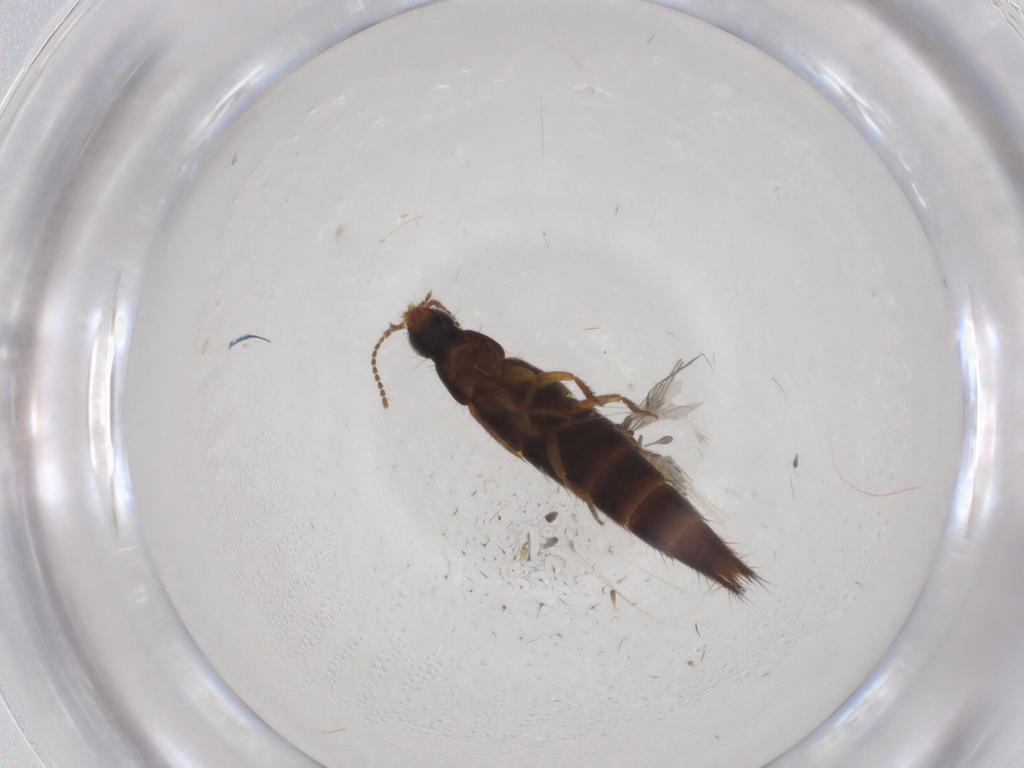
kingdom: Animalia
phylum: Arthropoda
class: Insecta
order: Coleoptera
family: Ptilodactylidae
